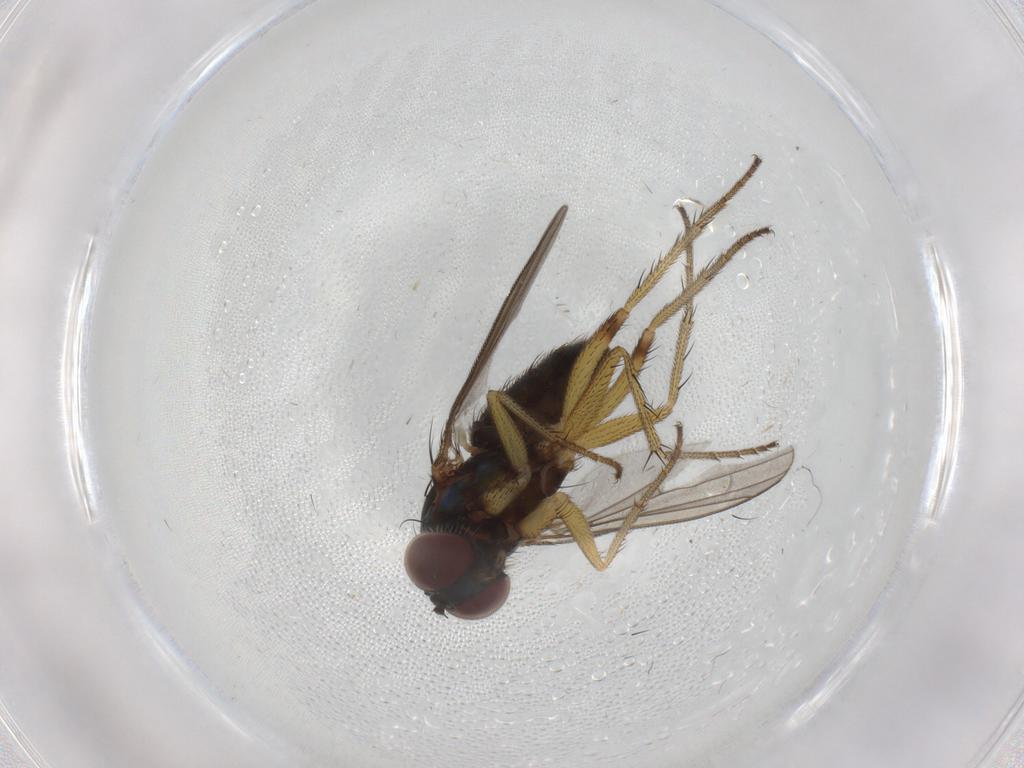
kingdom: Animalia
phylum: Arthropoda
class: Insecta
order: Diptera
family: Dolichopodidae
